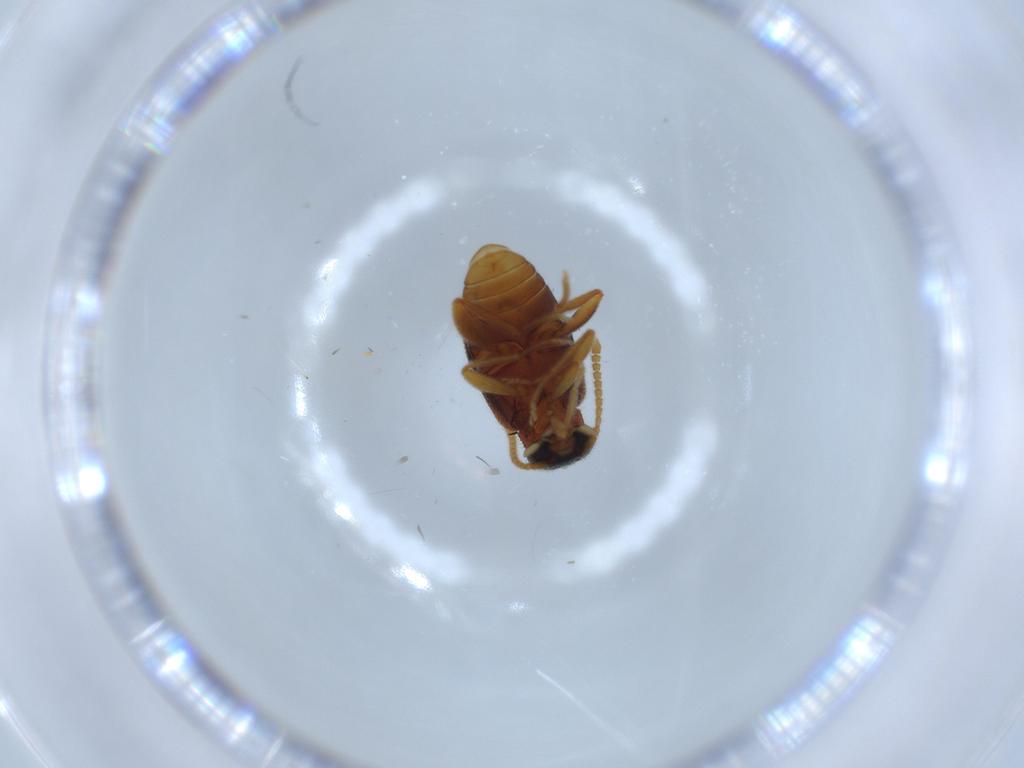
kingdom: Animalia
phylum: Arthropoda
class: Insecta
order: Coleoptera
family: Aderidae
